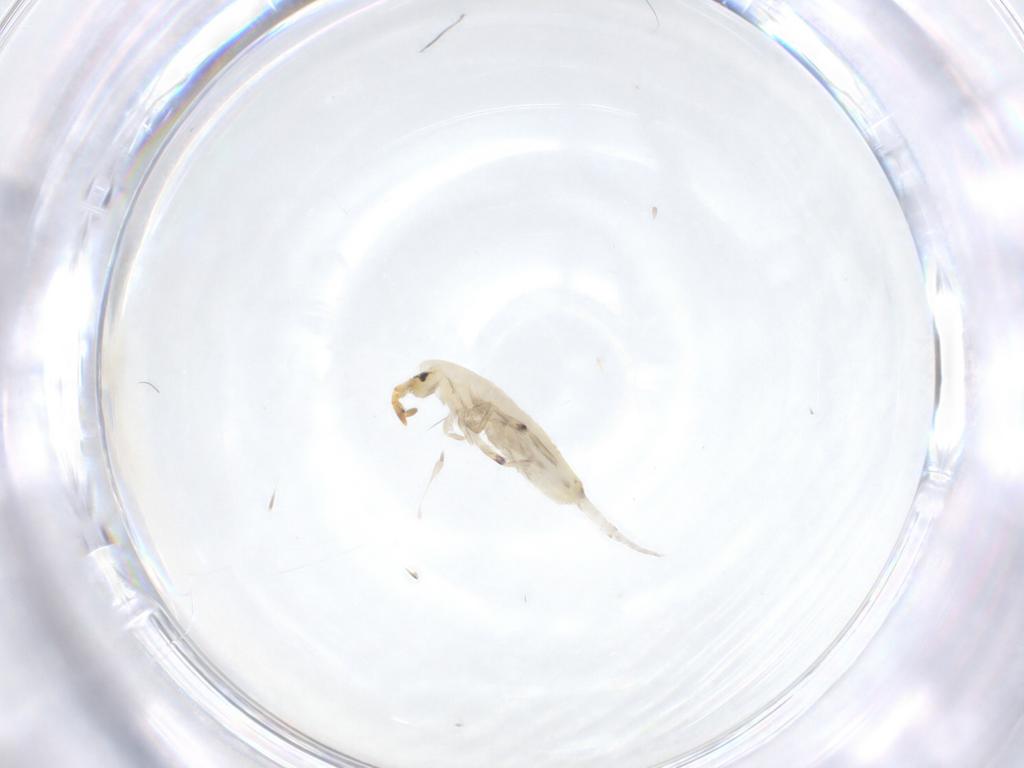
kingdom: Animalia
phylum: Arthropoda
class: Collembola
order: Entomobryomorpha
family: Entomobryidae
